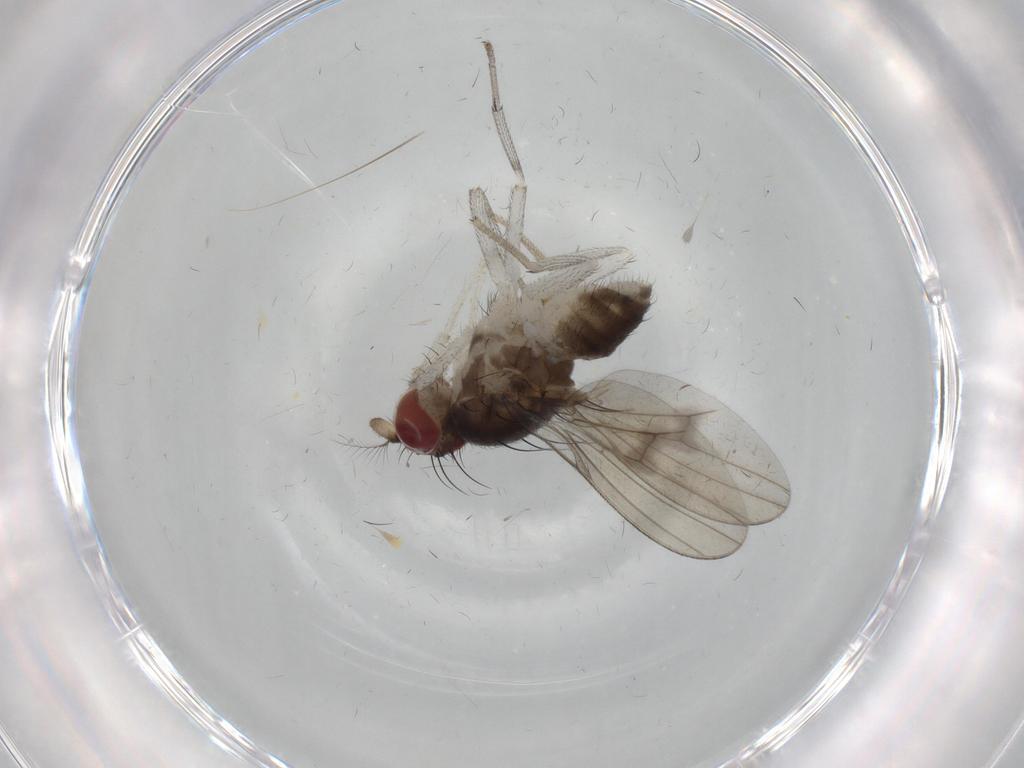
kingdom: Animalia
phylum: Arthropoda
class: Insecta
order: Diptera
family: Chironomidae
